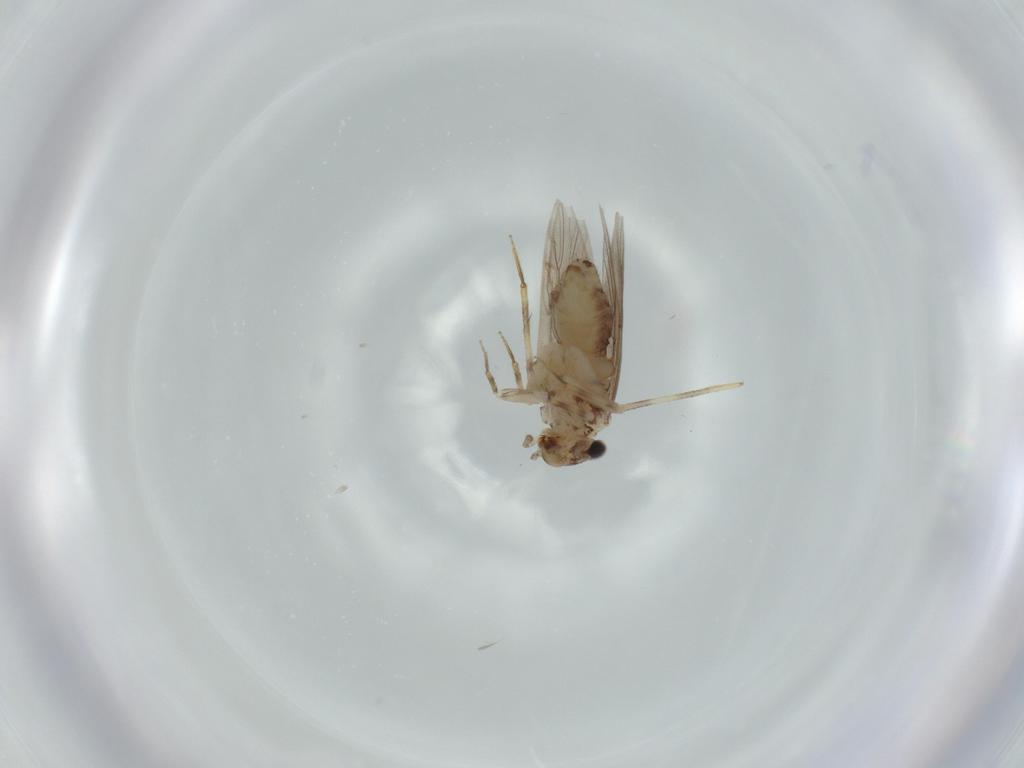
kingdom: Animalia
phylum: Arthropoda
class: Insecta
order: Psocodea
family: Lepidopsocidae
